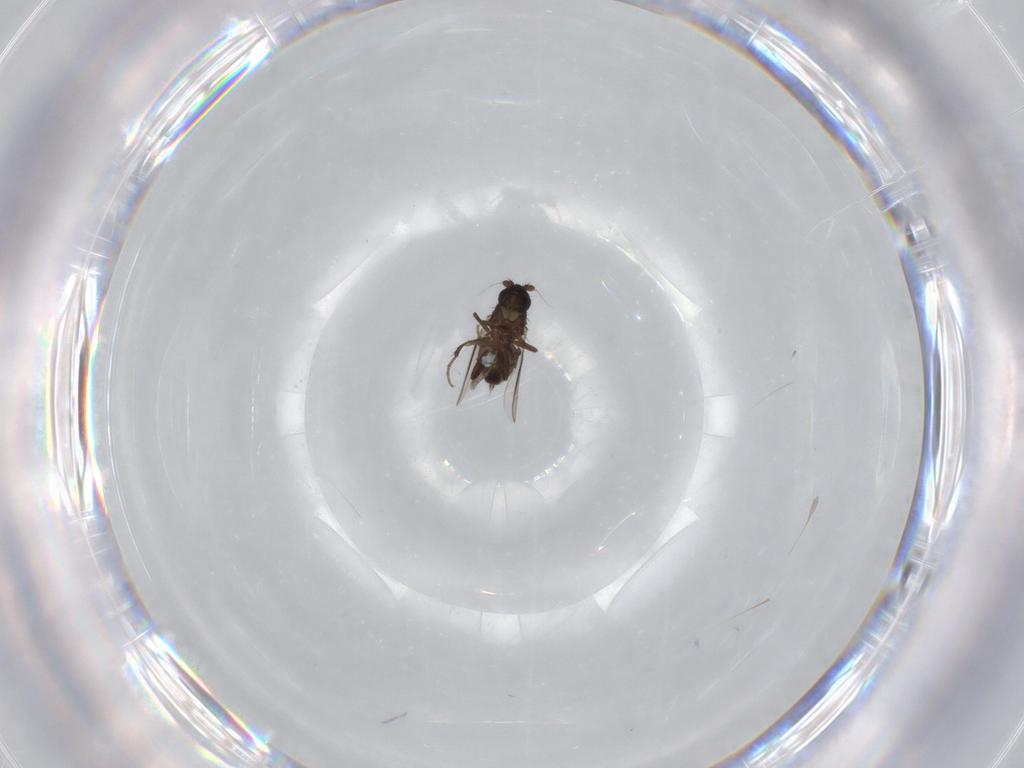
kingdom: Animalia
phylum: Arthropoda
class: Insecta
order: Diptera
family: Sphaeroceridae
